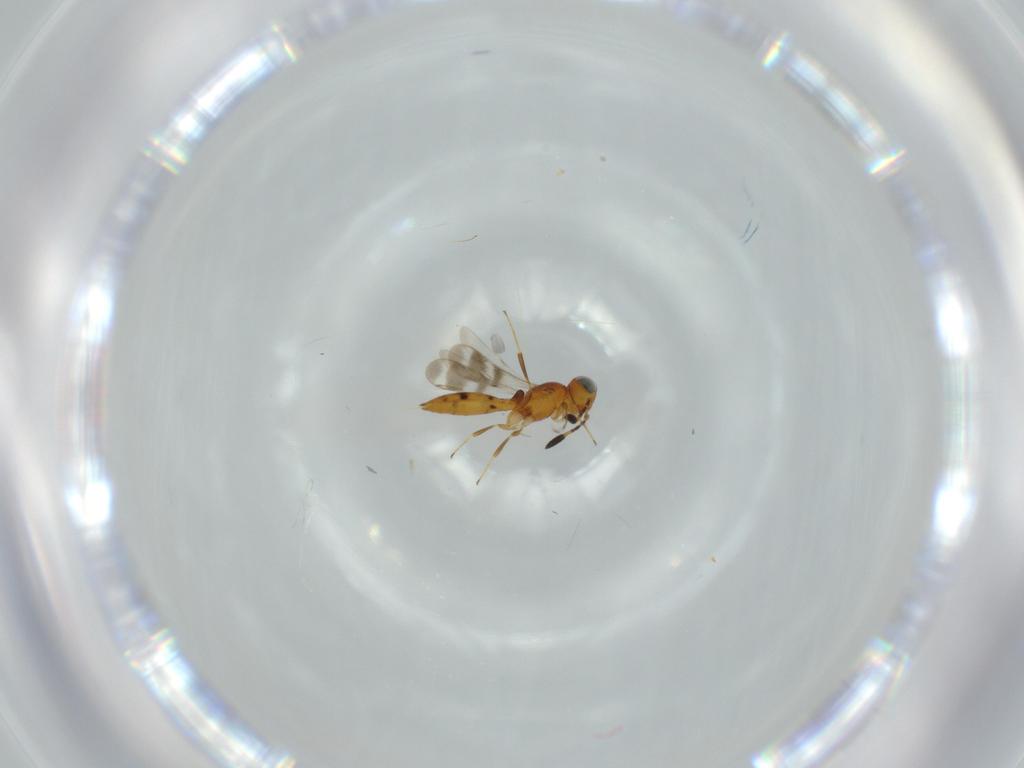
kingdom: Animalia
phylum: Arthropoda
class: Insecta
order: Hymenoptera
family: Scelionidae
